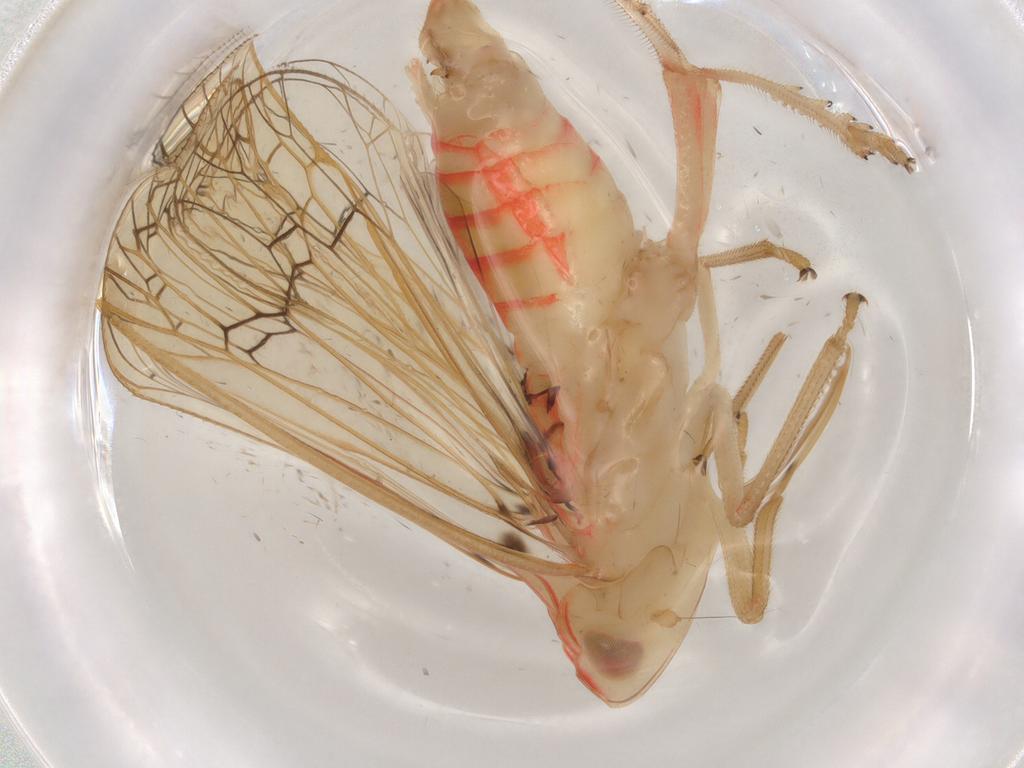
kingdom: Animalia
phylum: Arthropoda
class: Insecta
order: Hemiptera
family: Tropiduchidae
